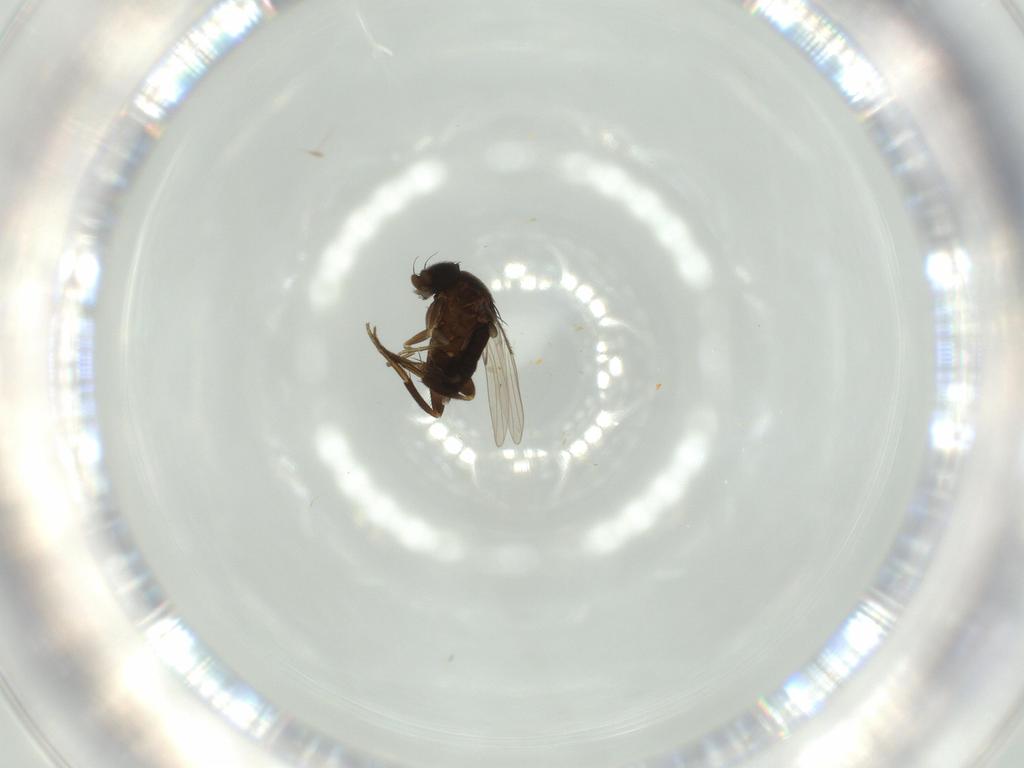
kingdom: Animalia
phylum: Arthropoda
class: Insecta
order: Diptera
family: Phoridae
